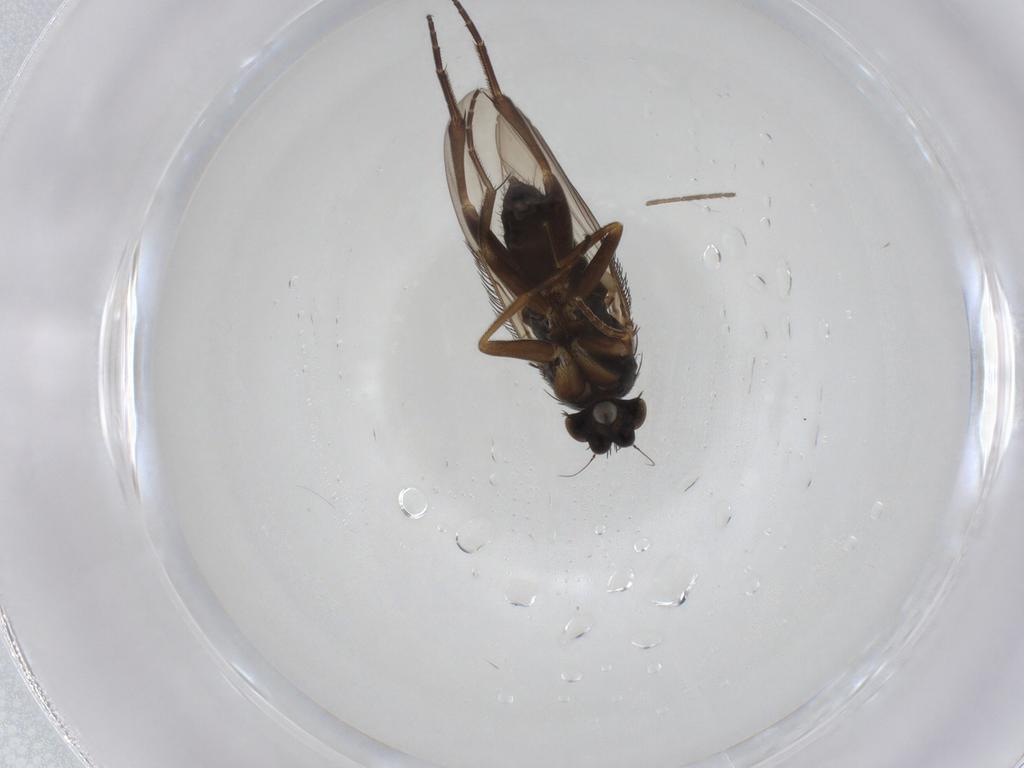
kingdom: Animalia
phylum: Arthropoda
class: Insecta
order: Diptera
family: Phoridae
